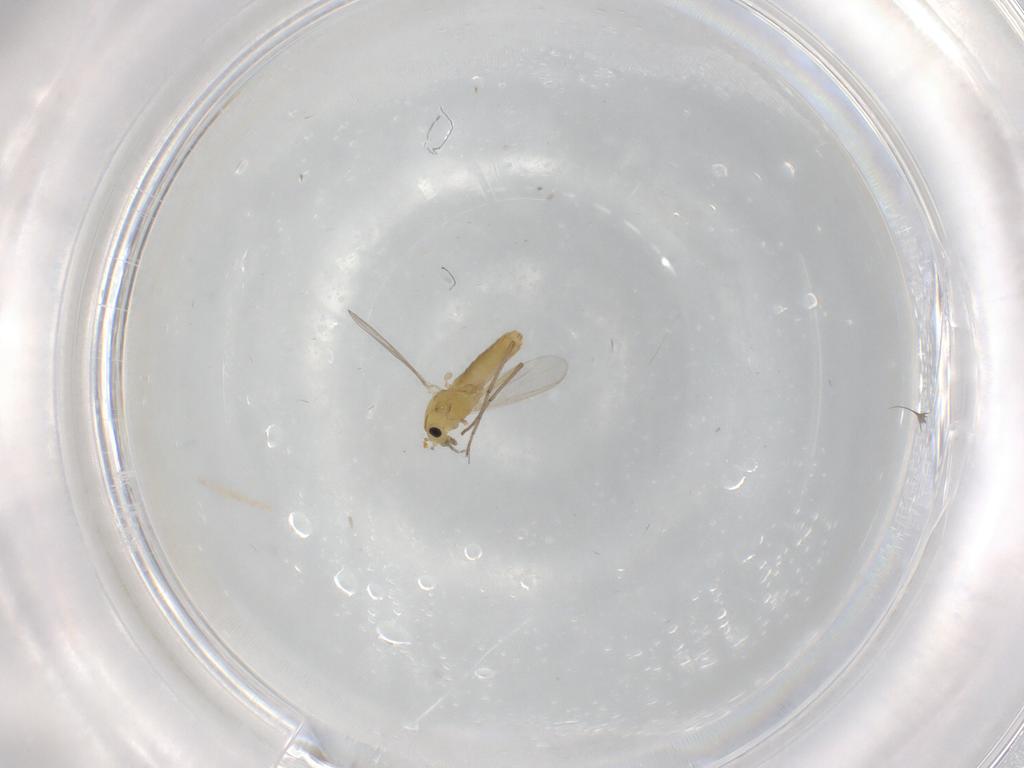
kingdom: Animalia
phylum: Arthropoda
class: Insecta
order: Diptera
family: Chironomidae
